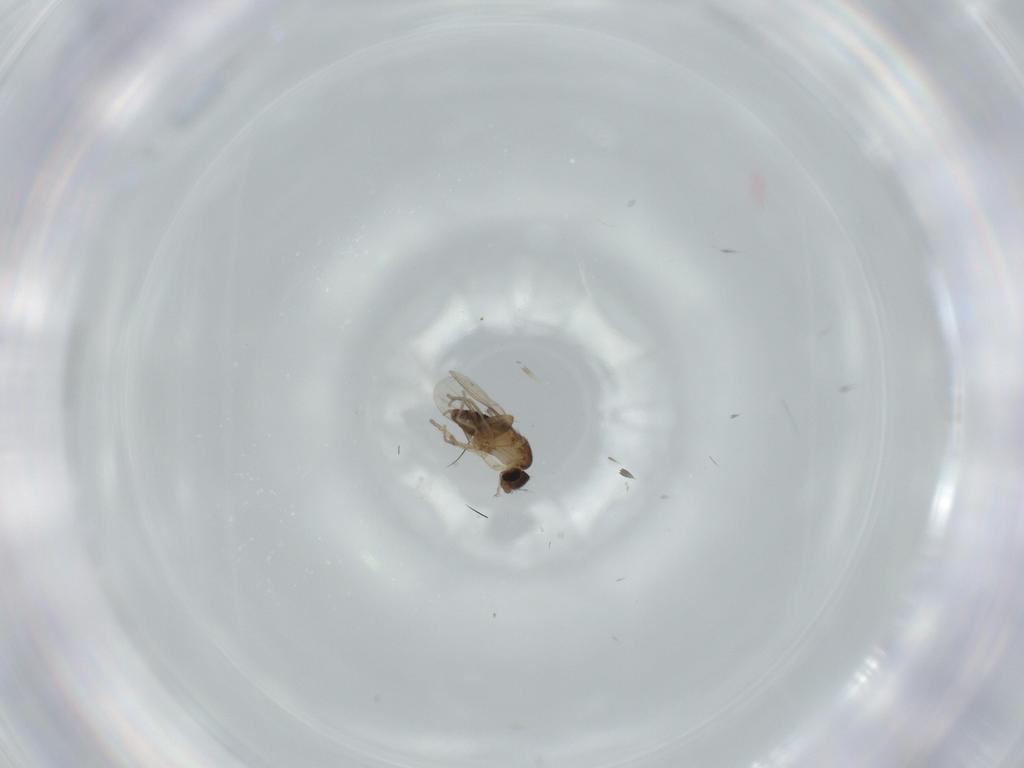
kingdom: Animalia
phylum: Arthropoda
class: Insecta
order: Diptera
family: Phoridae
